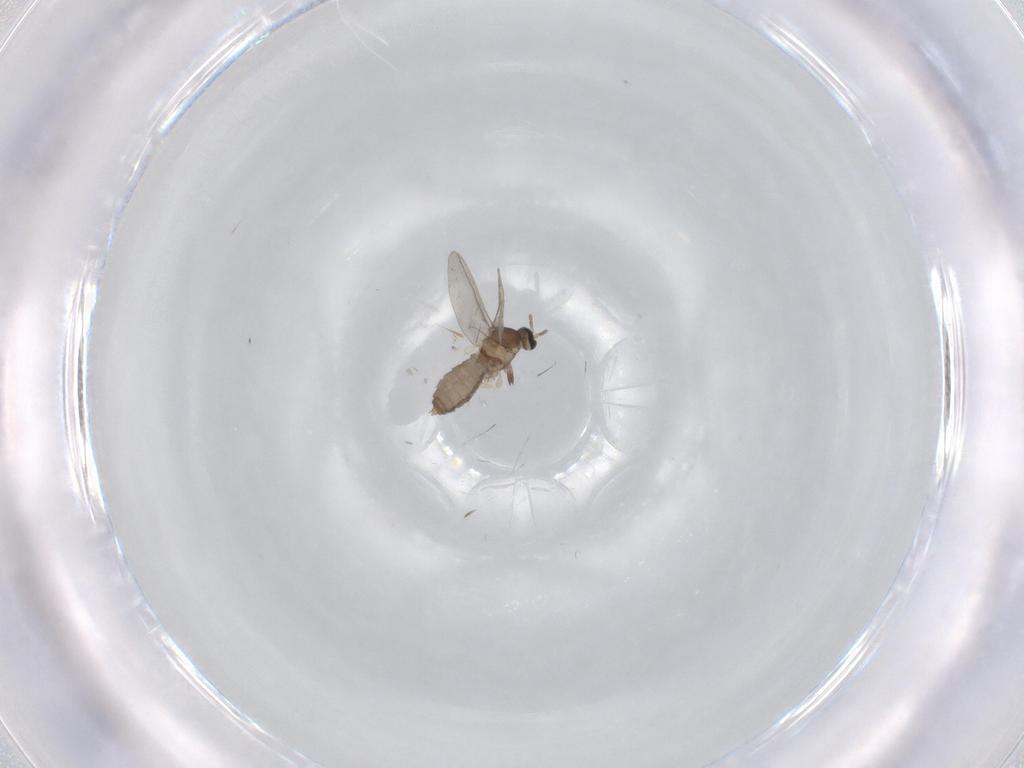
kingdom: Animalia
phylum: Arthropoda
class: Insecta
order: Diptera
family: Cecidomyiidae
